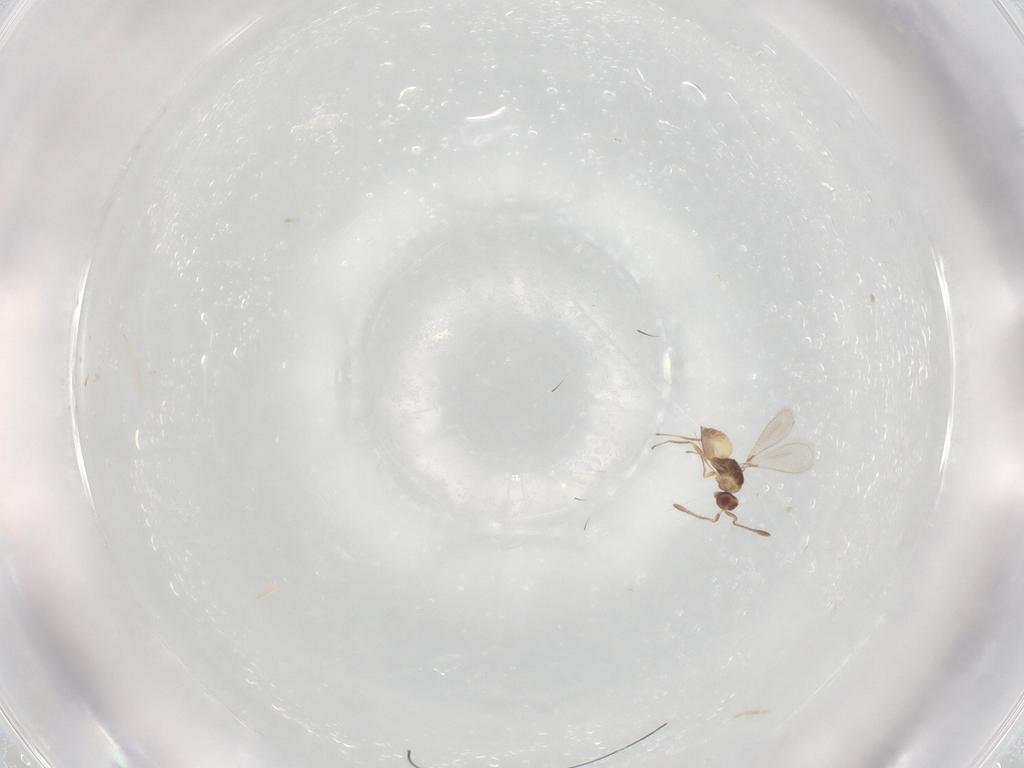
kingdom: Animalia
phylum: Arthropoda
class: Insecta
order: Hymenoptera
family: Mymaridae
